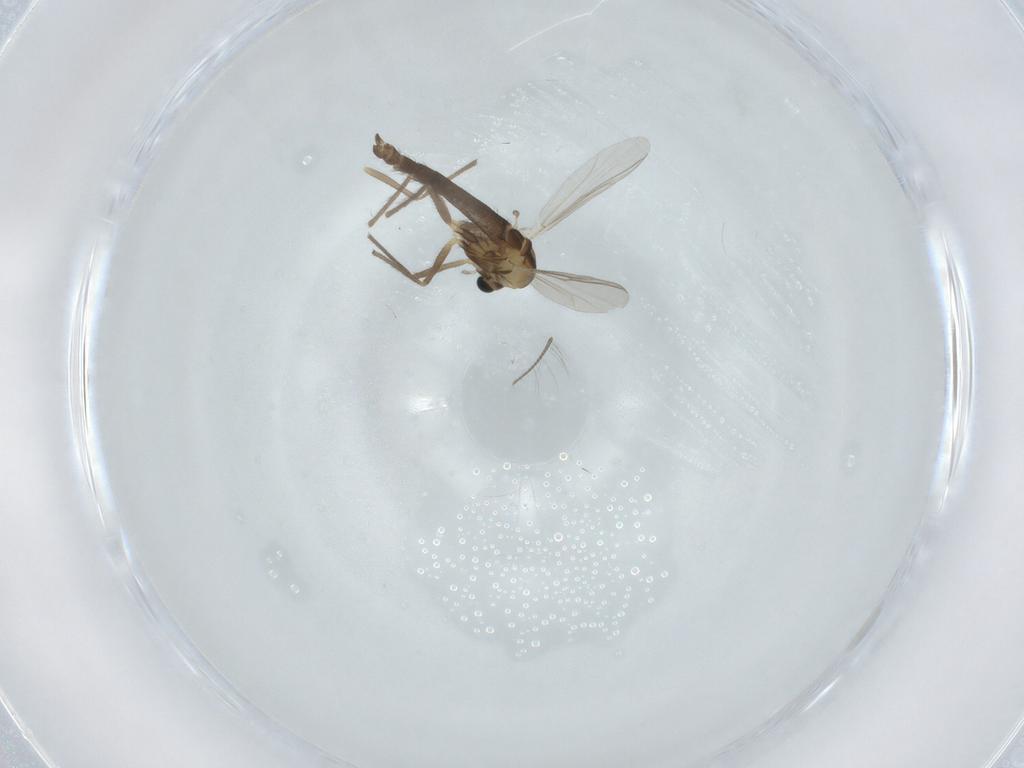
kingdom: Animalia
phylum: Arthropoda
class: Insecta
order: Diptera
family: Chironomidae
